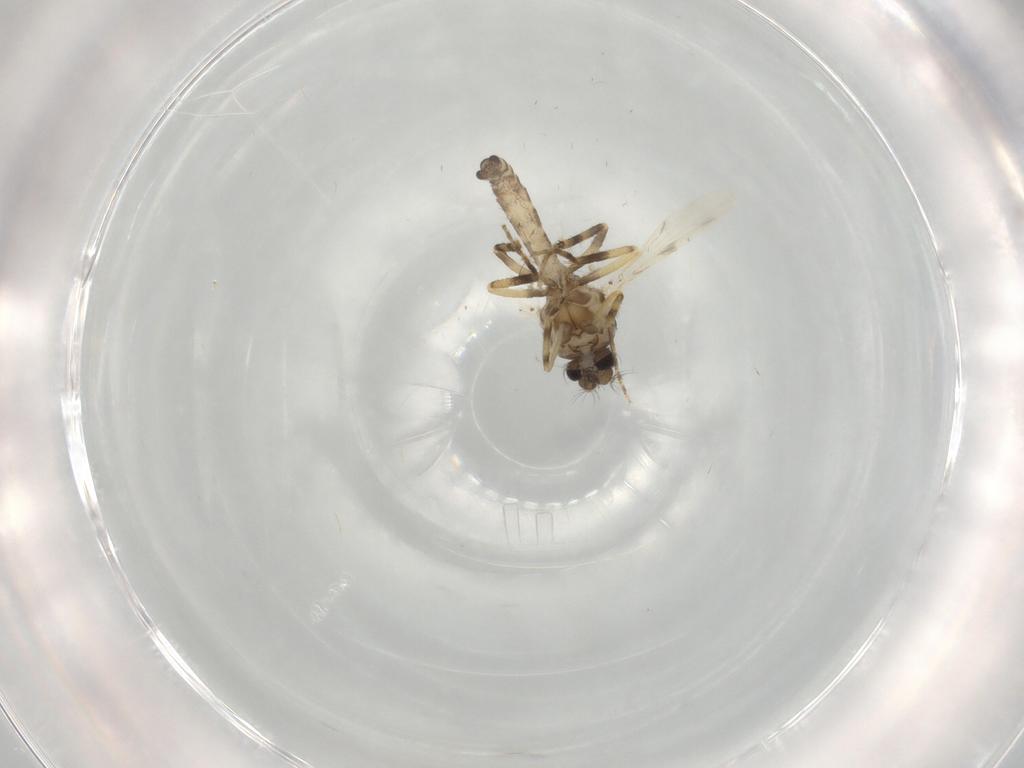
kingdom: Animalia
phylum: Arthropoda
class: Insecta
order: Diptera
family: Ceratopogonidae
